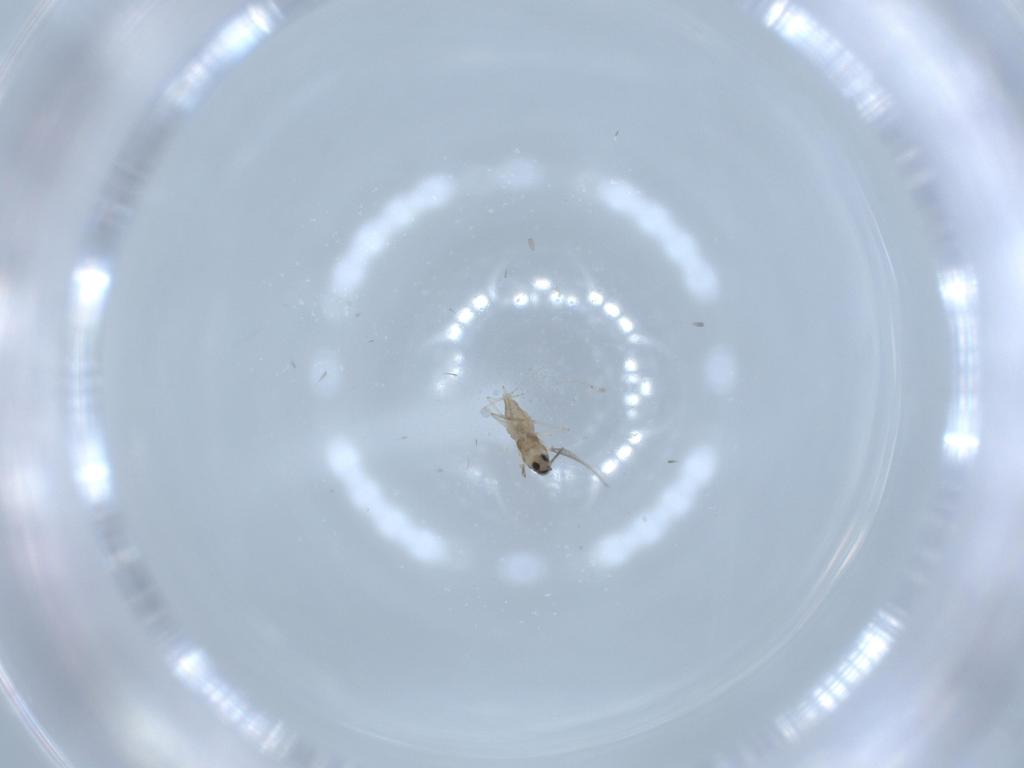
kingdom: Animalia
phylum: Arthropoda
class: Insecta
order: Diptera
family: Cecidomyiidae
